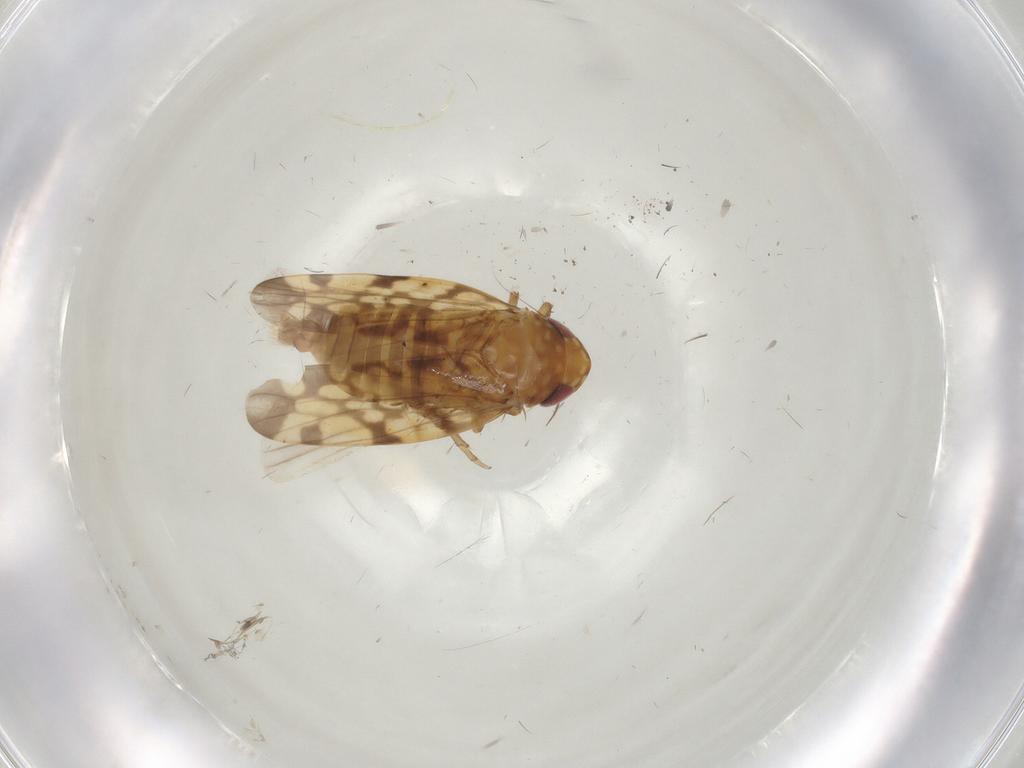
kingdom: Animalia
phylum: Arthropoda
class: Insecta
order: Hemiptera
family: Cicadellidae
